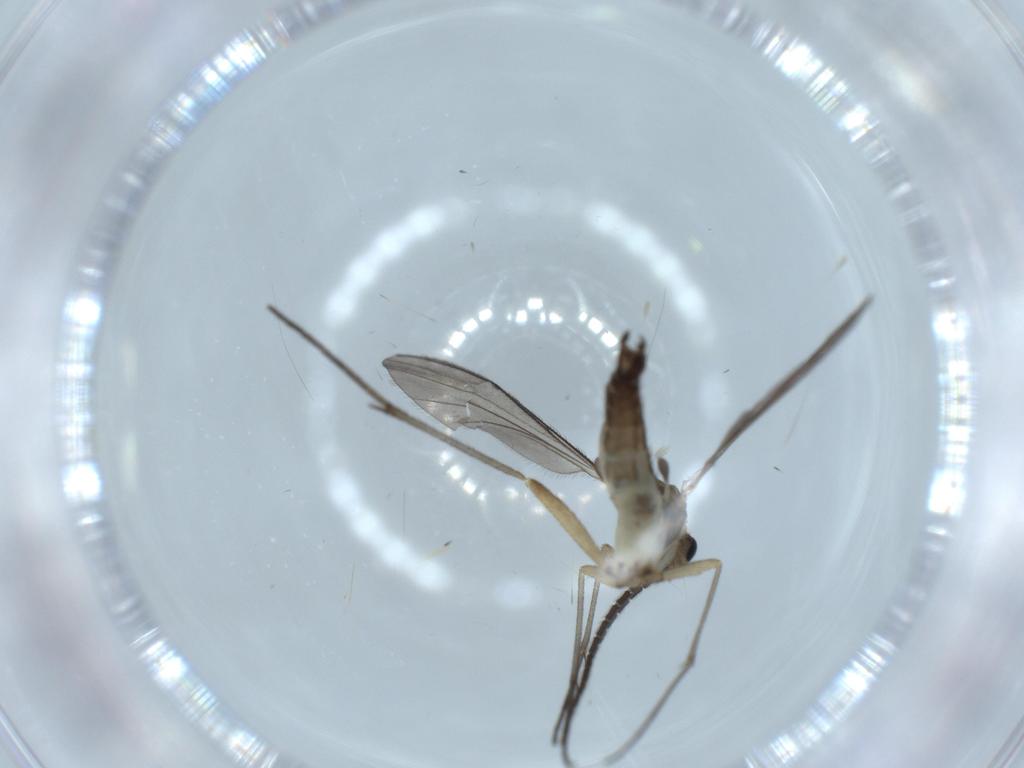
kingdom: Animalia
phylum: Arthropoda
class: Insecta
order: Diptera
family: Sciaridae
